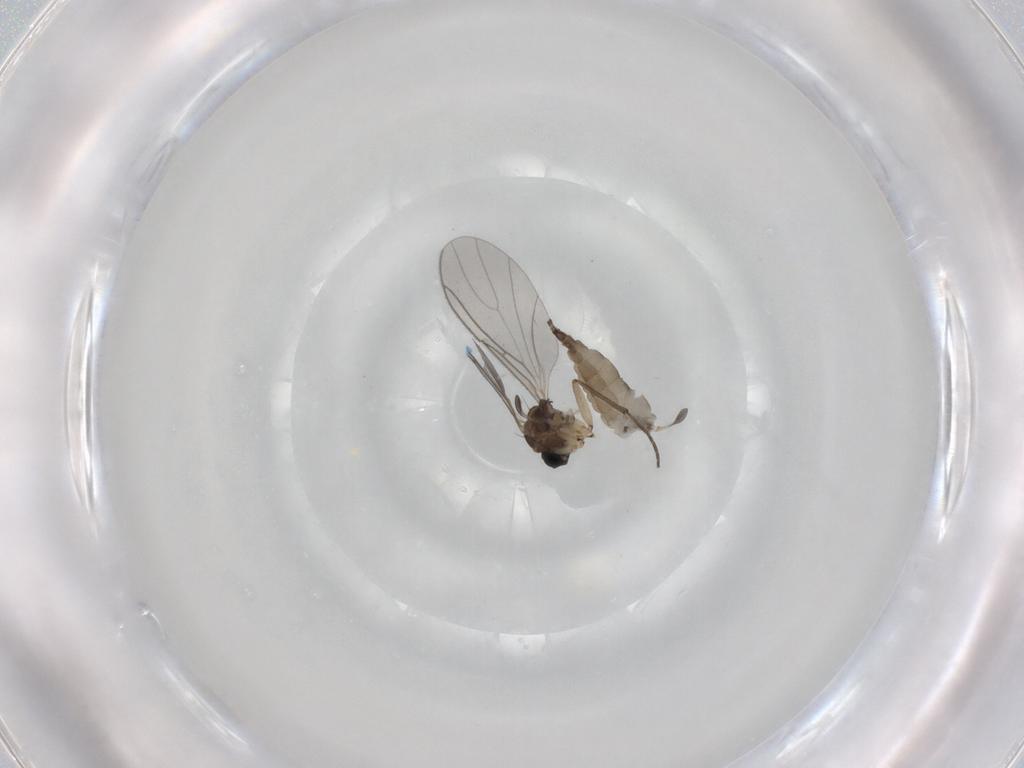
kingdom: Animalia
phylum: Arthropoda
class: Insecta
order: Diptera
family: Sciaridae
